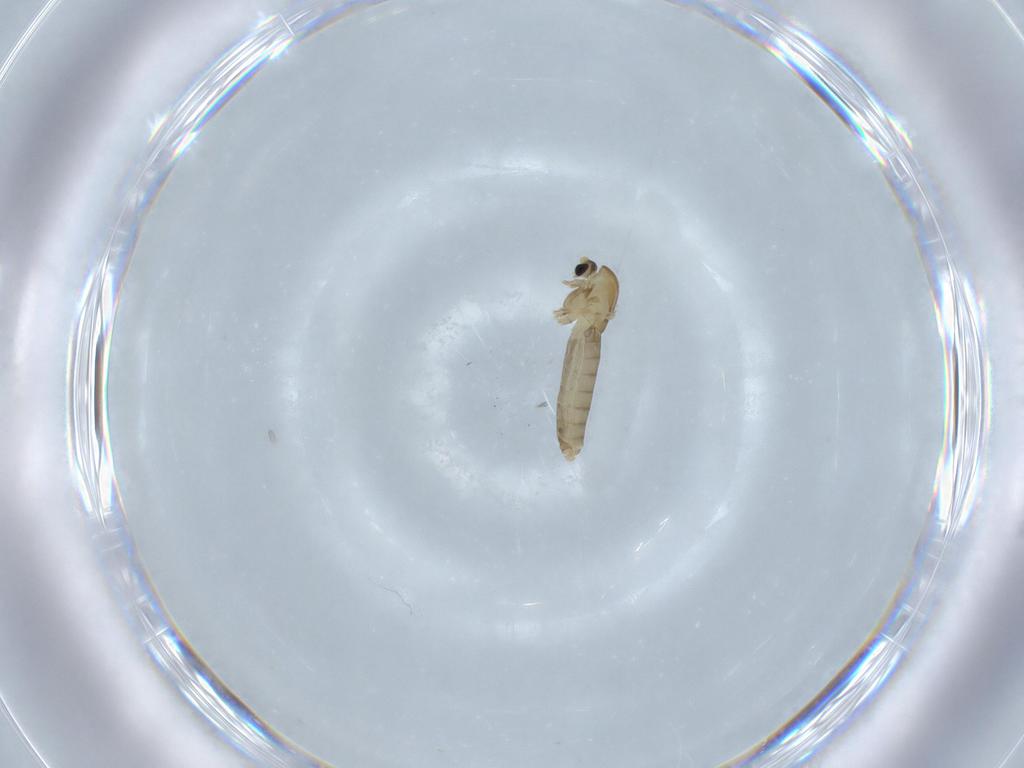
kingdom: Animalia
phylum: Arthropoda
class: Insecta
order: Diptera
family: Chironomidae
